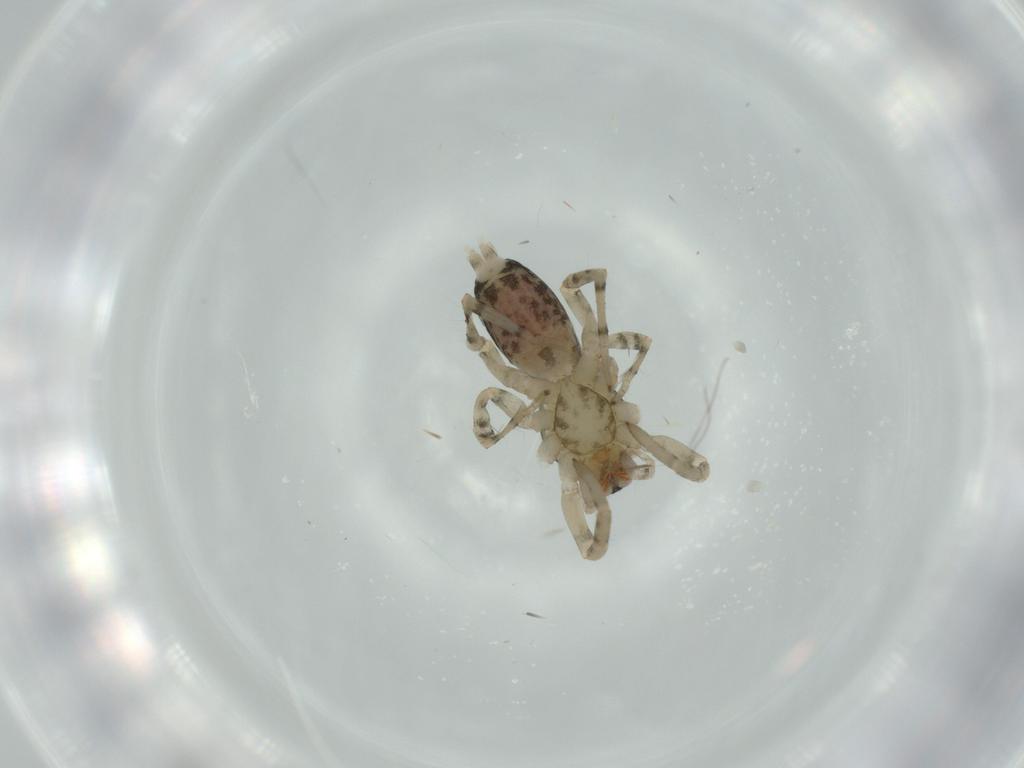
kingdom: Animalia
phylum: Arthropoda
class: Arachnida
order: Araneae
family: Clubionidae
